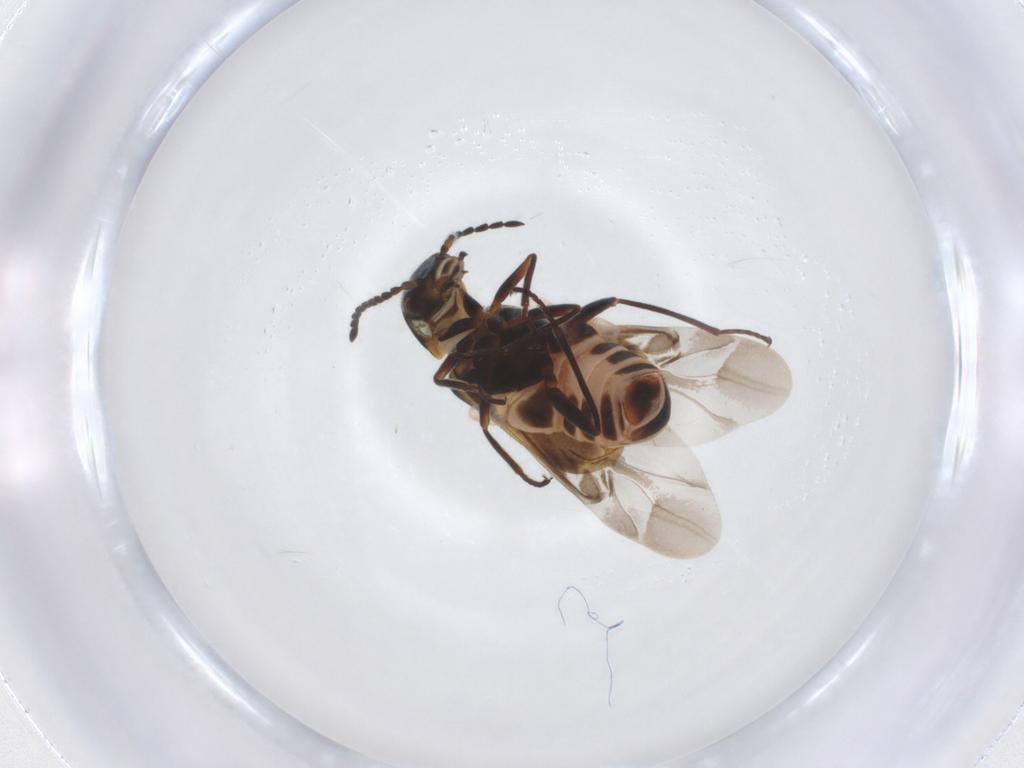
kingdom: Animalia
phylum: Arthropoda
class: Insecta
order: Coleoptera
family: Melyridae
